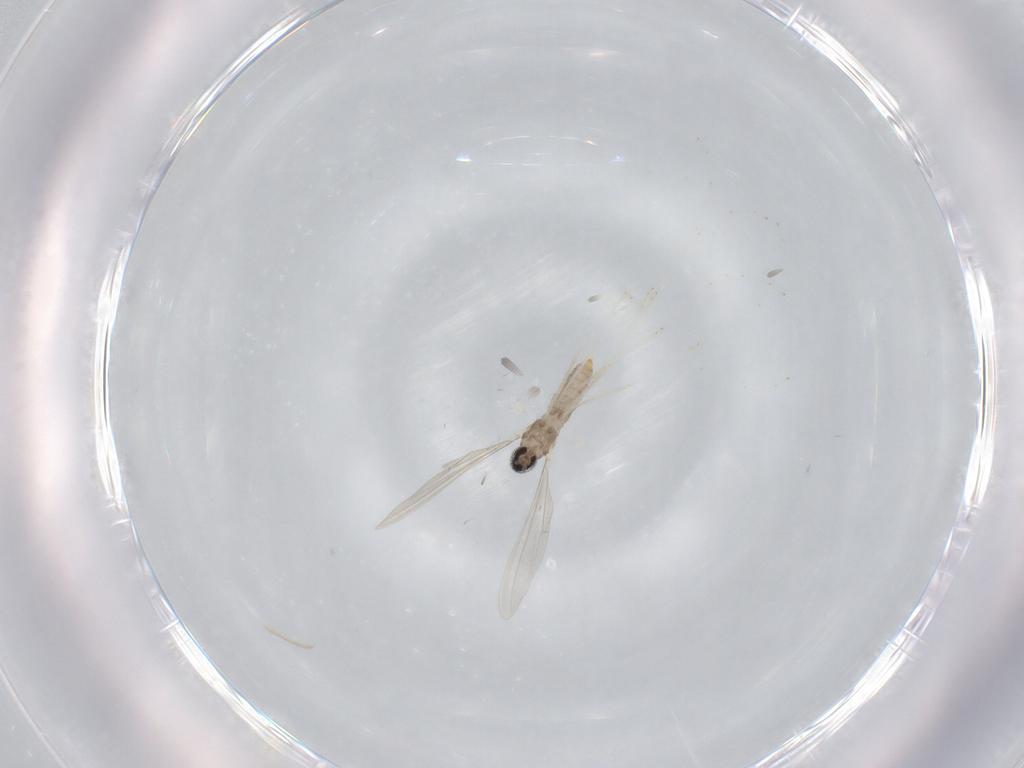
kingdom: Animalia
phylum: Arthropoda
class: Insecta
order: Diptera
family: Cecidomyiidae
